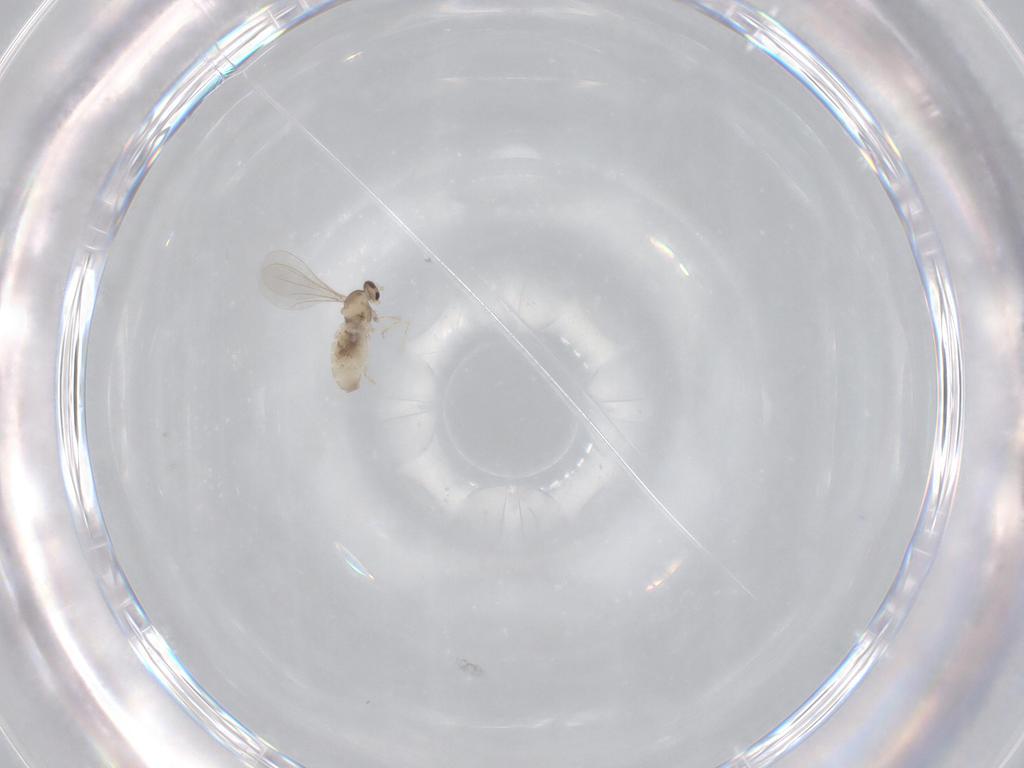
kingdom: Animalia
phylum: Arthropoda
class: Insecta
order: Diptera
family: Cecidomyiidae
